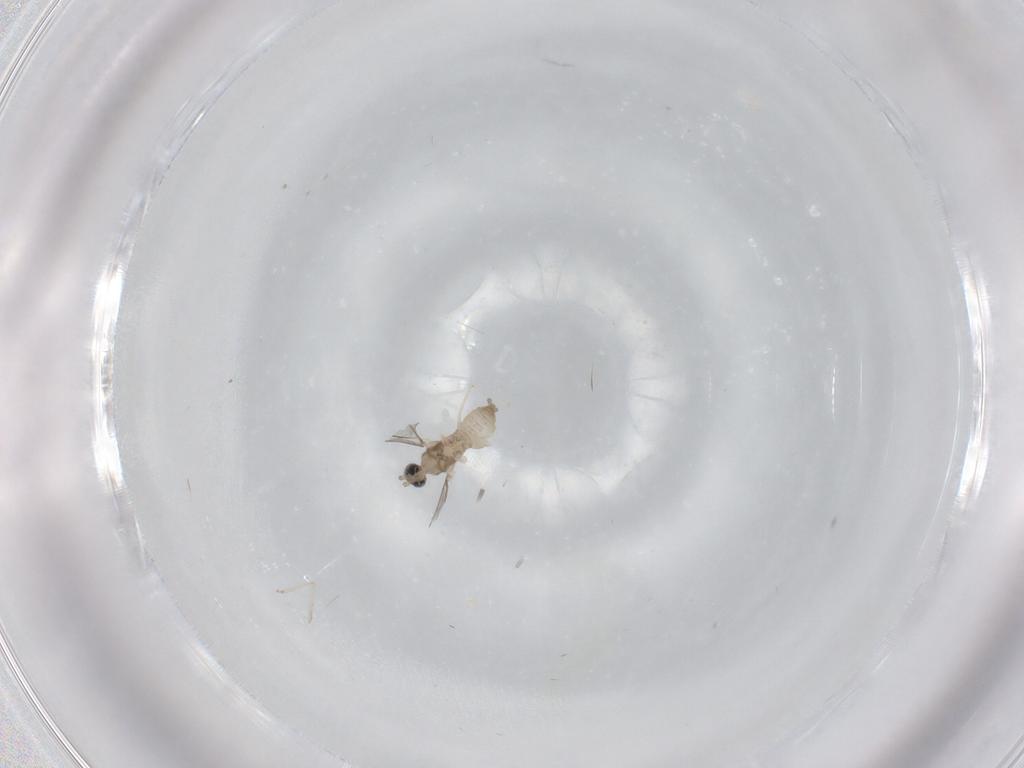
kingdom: Animalia
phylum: Arthropoda
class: Insecta
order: Diptera
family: Cecidomyiidae
